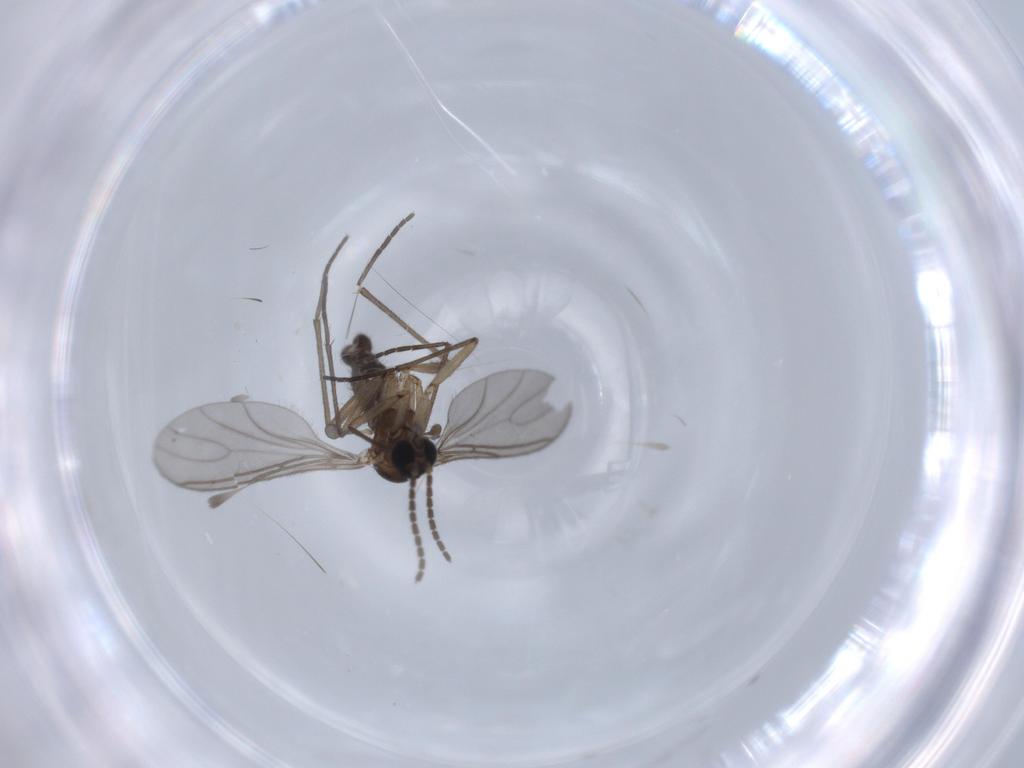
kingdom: Animalia
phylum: Arthropoda
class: Insecta
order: Diptera
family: Sciaridae
